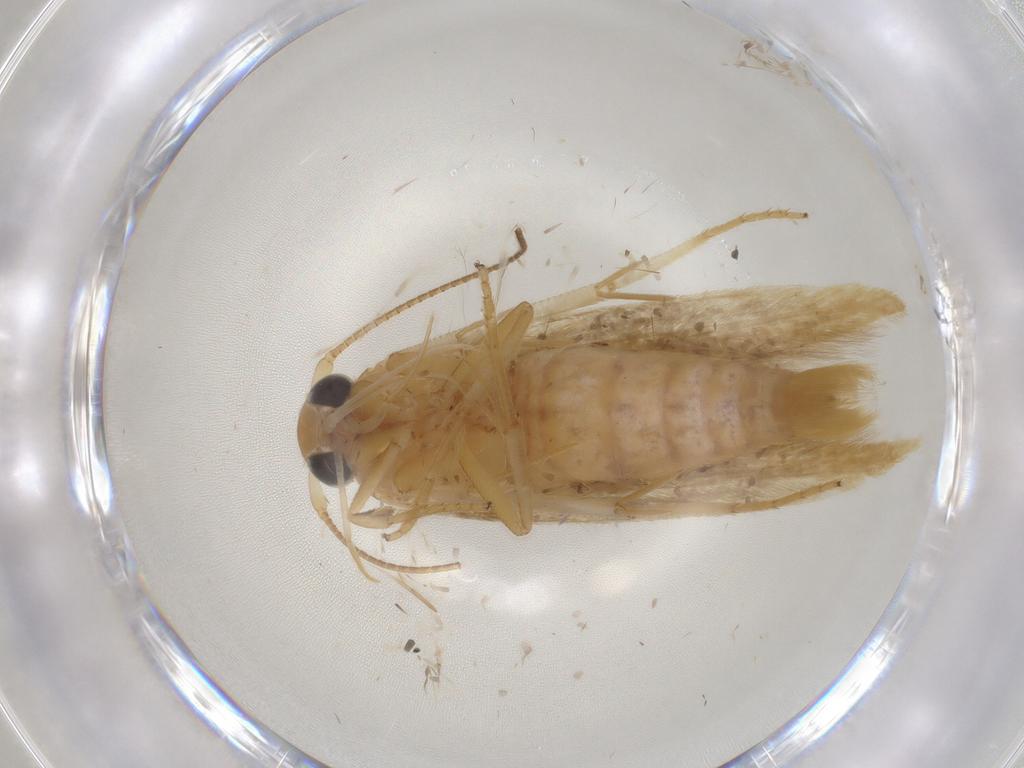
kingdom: Animalia
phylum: Arthropoda
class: Insecta
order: Lepidoptera
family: Stathmopodidae
